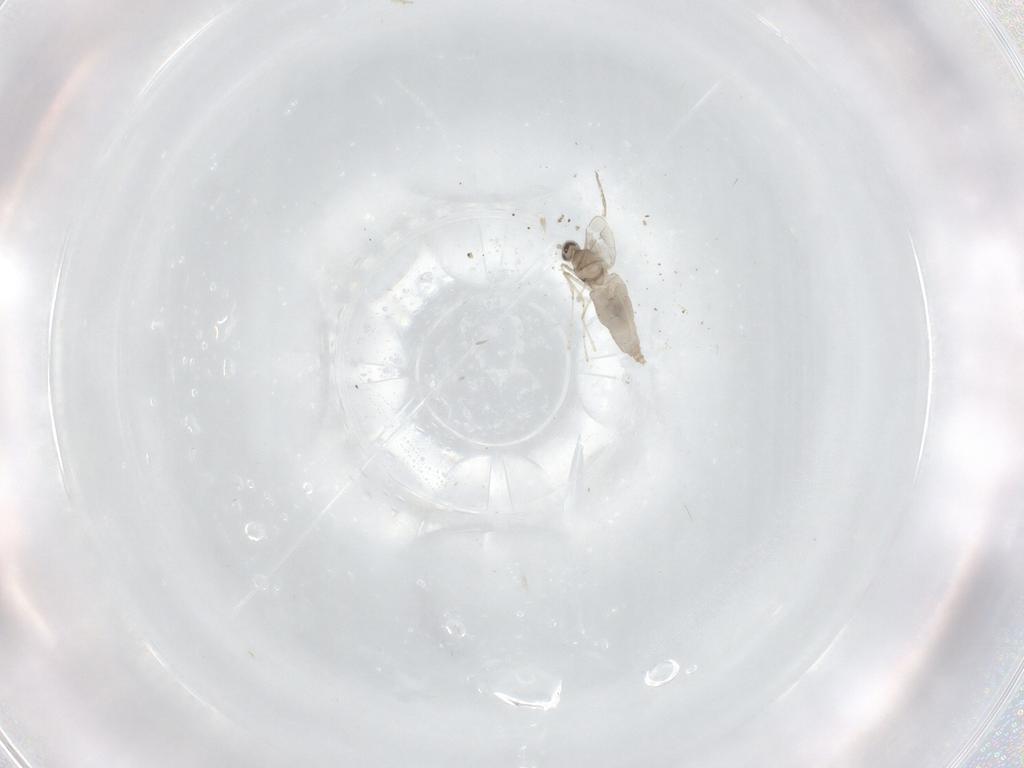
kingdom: Animalia
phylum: Arthropoda
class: Insecta
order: Diptera
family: Cecidomyiidae
